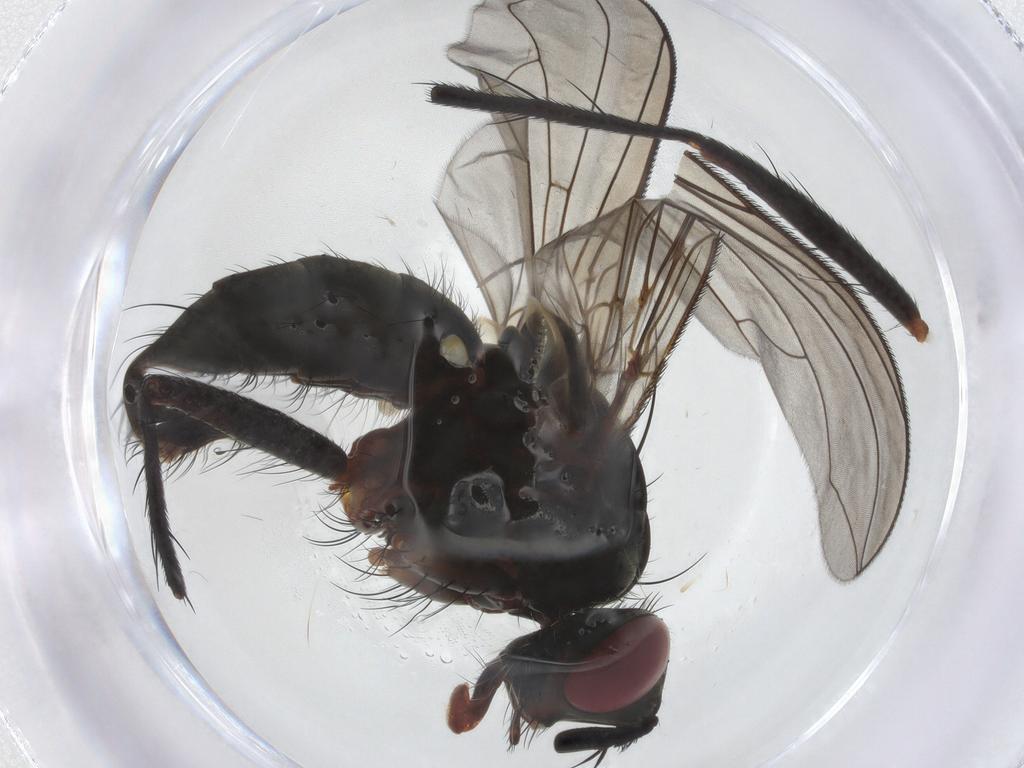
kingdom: Animalia
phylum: Arthropoda
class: Insecta
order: Diptera
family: Tachinidae
